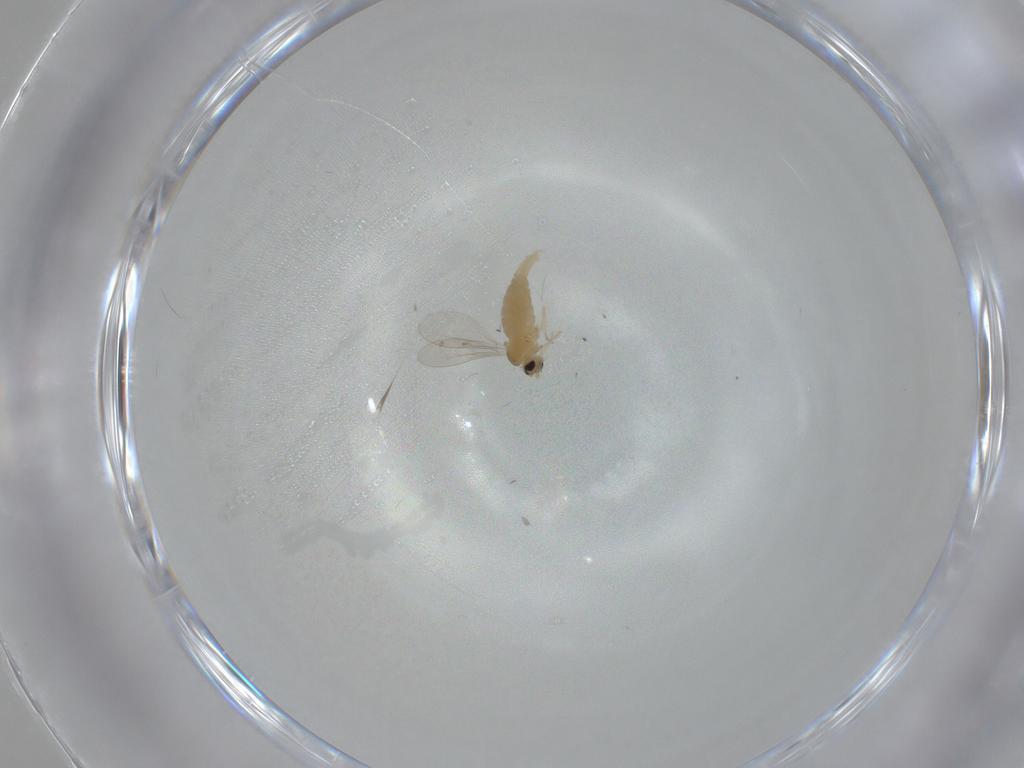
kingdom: Animalia
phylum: Arthropoda
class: Insecta
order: Diptera
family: Cecidomyiidae
